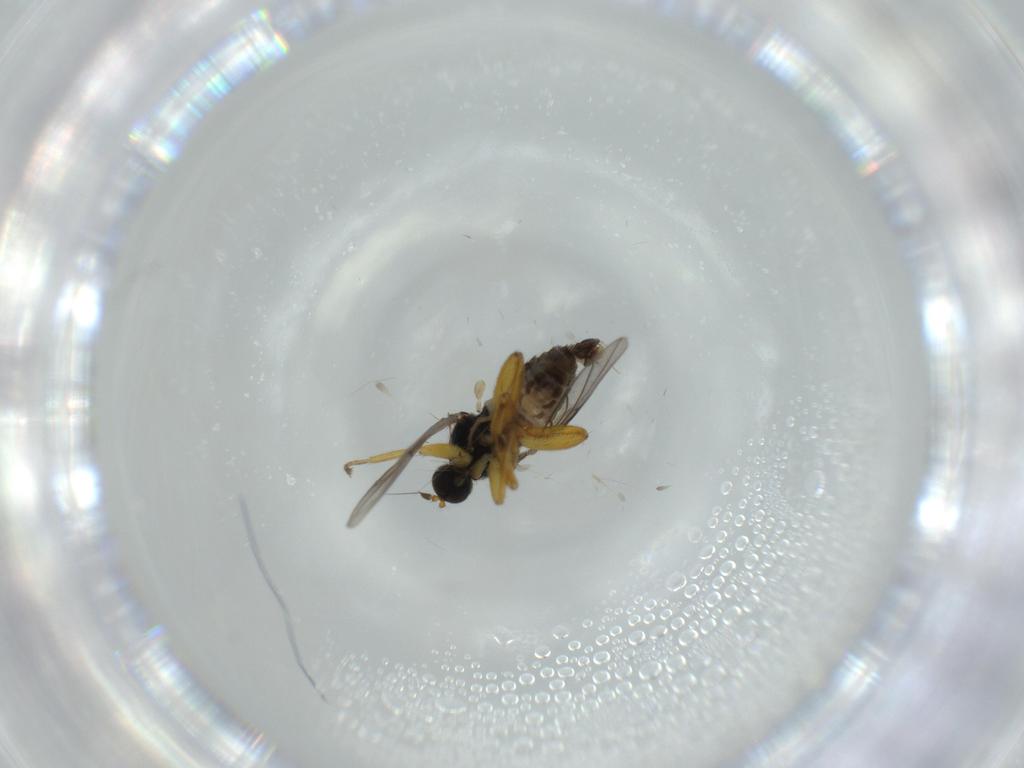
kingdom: Animalia
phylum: Arthropoda
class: Insecta
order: Diptera
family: Hybotidae
